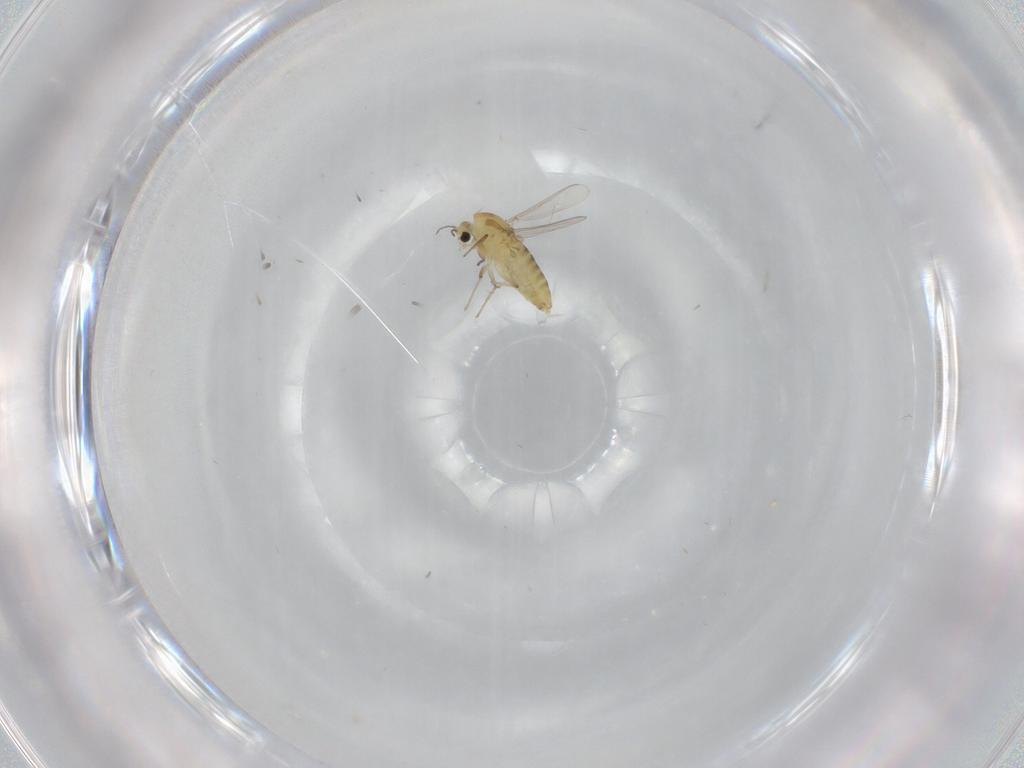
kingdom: Animalia
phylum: Arthropoda
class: Insecta
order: Diptera
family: Chironomidae
